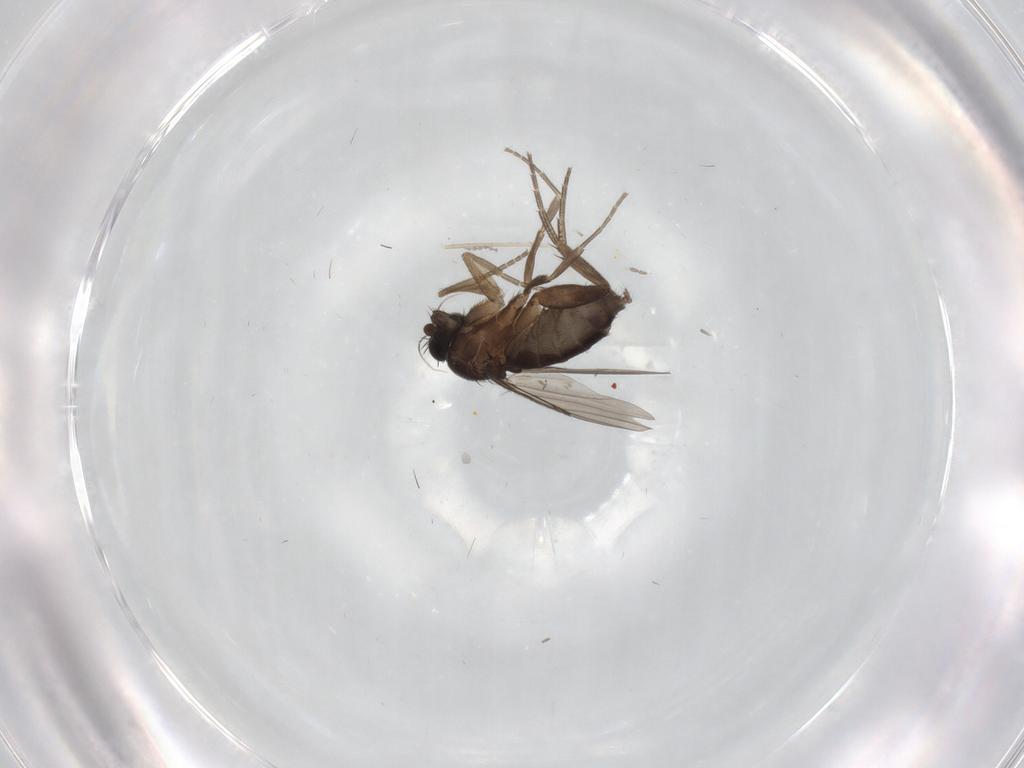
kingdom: Animalia
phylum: Arthropoda
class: Insecta
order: Diptera
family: Phoridae
